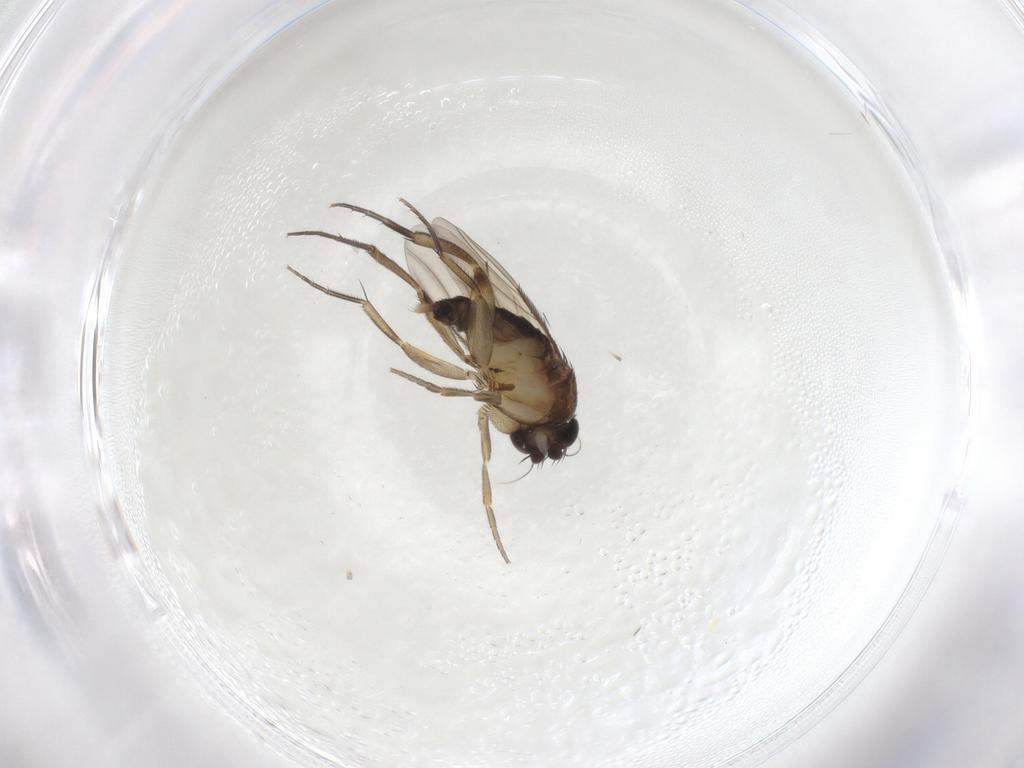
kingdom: Animalia
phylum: Arthropoda
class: Insecta
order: Diptera
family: Phoridae
